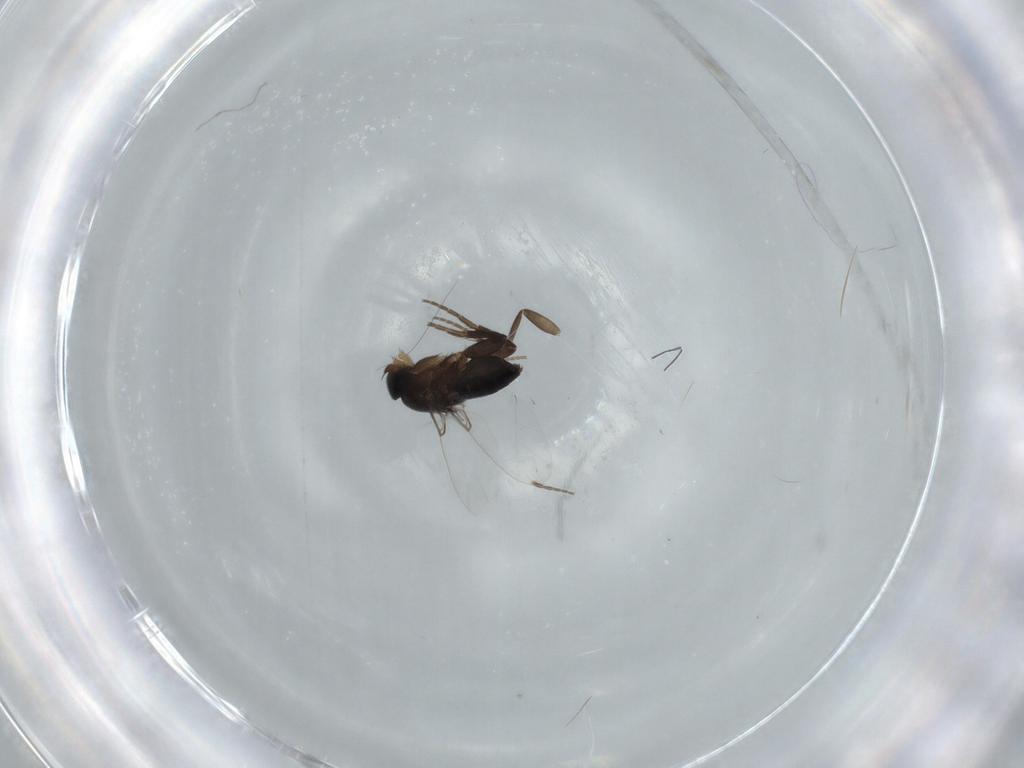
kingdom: Animalia
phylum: Arthropoda
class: Insecta
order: Diptera
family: Phoridae
